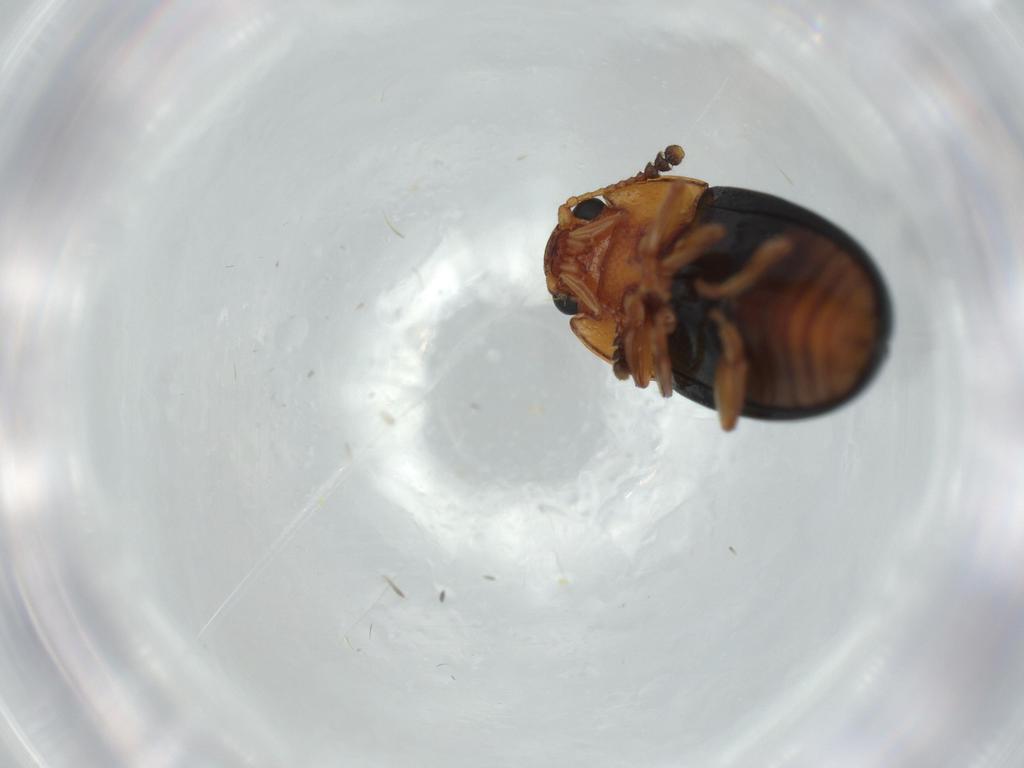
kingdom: Animalia
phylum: Arthropoda
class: Insecta
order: Coleoptera
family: Erotylidae
